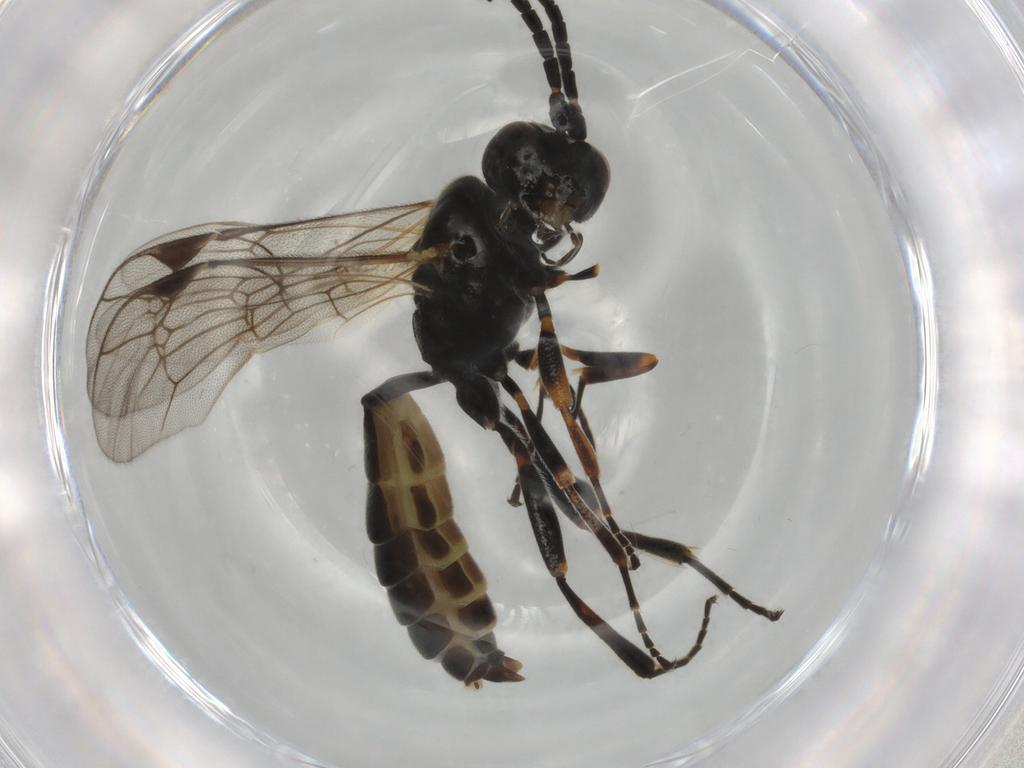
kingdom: Animalia
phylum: Arthropoda
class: Insecta
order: Hymenoptera
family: Ichneumonidae
